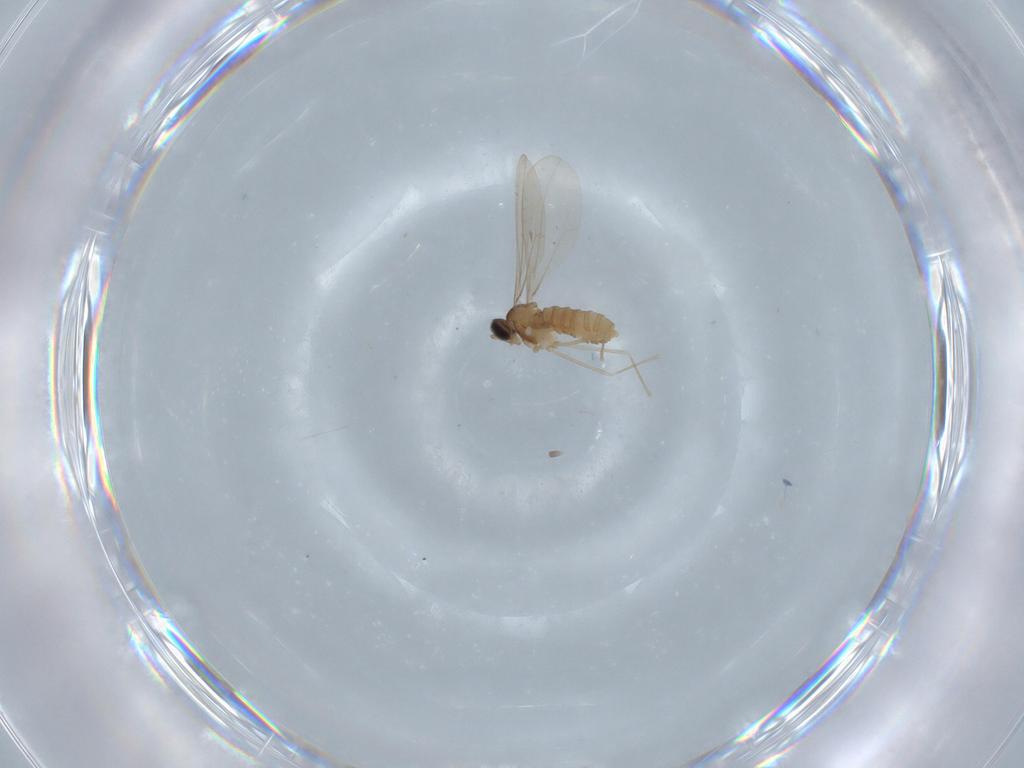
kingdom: Animalia
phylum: Arthropoda
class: Insecta
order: Diptera
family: Cecidomyiidae
